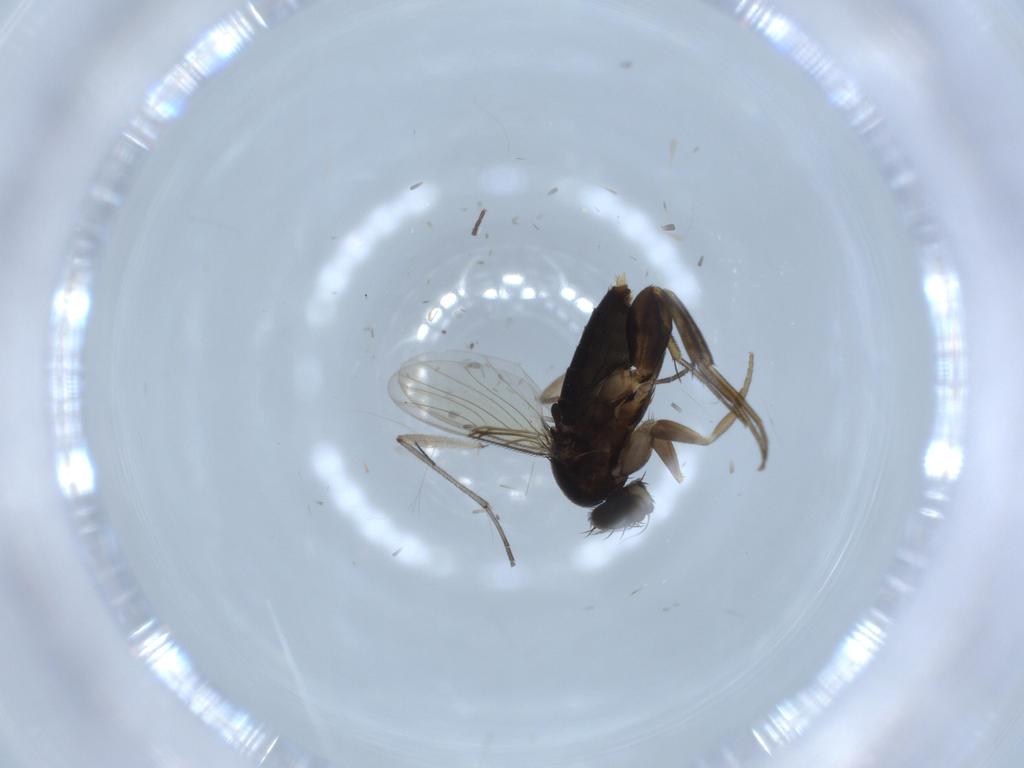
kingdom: Animalia
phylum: Arthropoda
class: Insecta
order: Diptera
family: Phoridae
